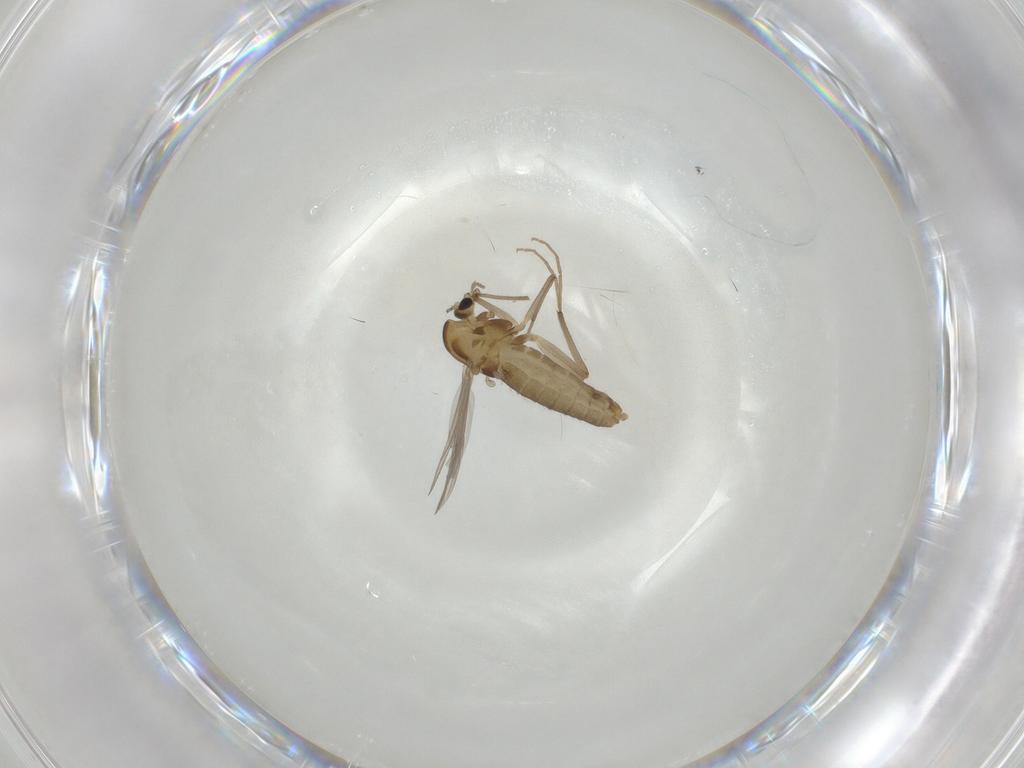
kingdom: Animalia
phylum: Arthropoda
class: Insecta
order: Diptera
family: Chironomidae
